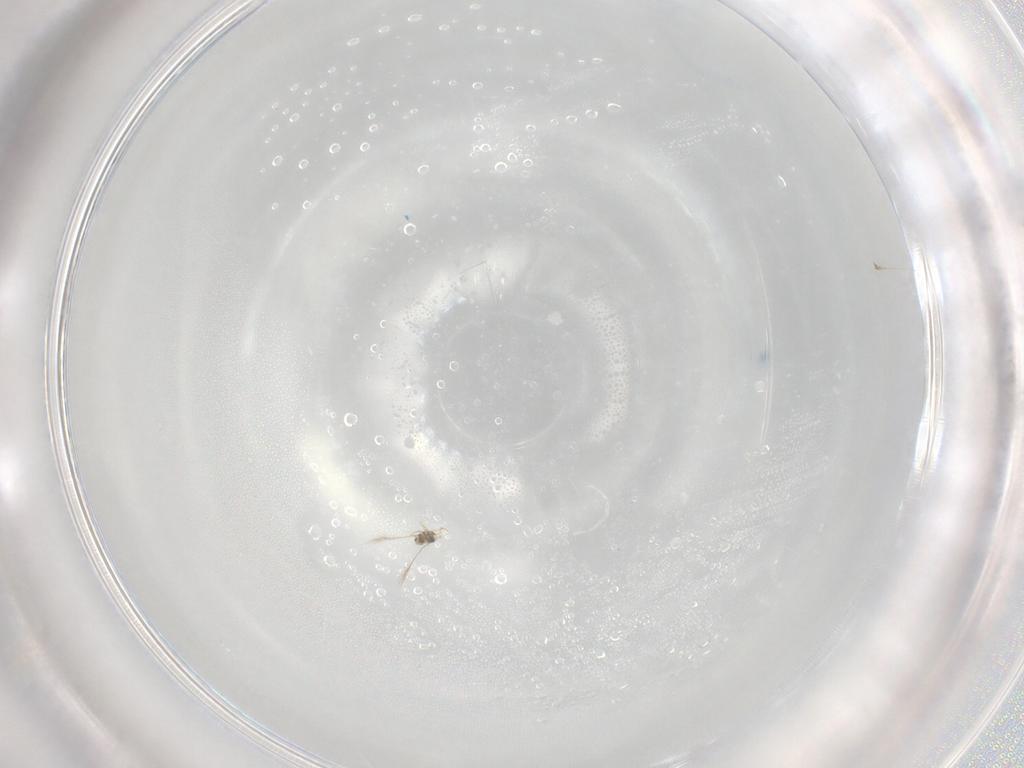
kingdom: Animalia
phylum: Arthropoda
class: Insecta
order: Hymenoptera
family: Mymaridae
